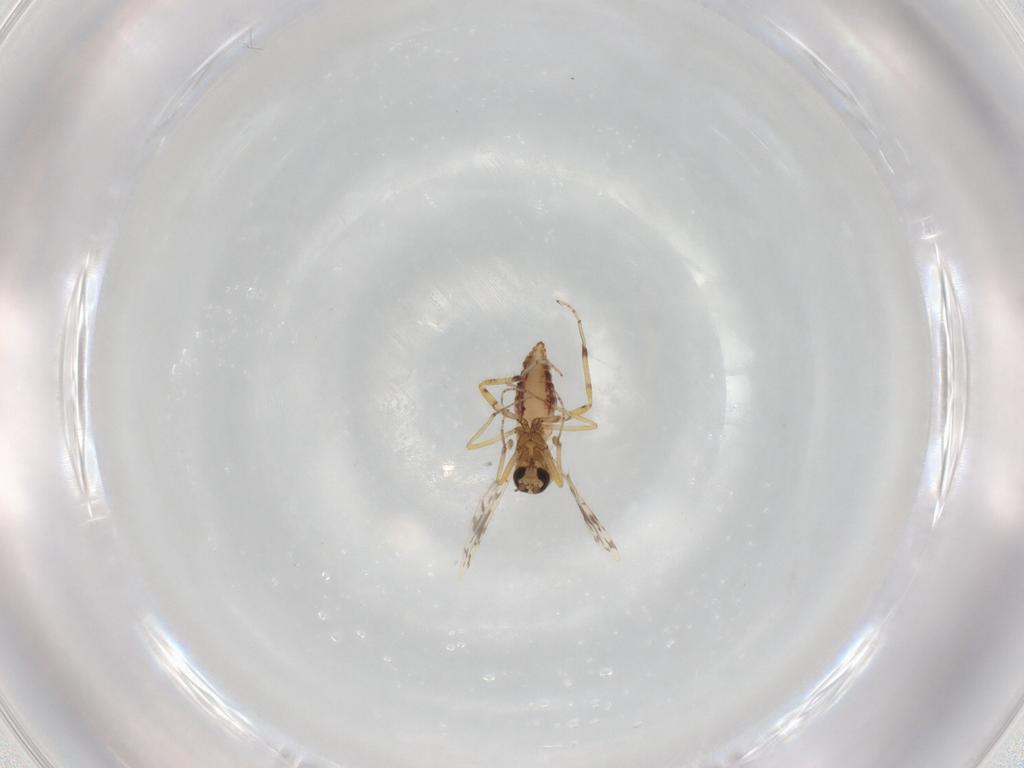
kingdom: Animalia
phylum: Arthropoda
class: Insecta
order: Diptera
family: Ceratopogonidae
